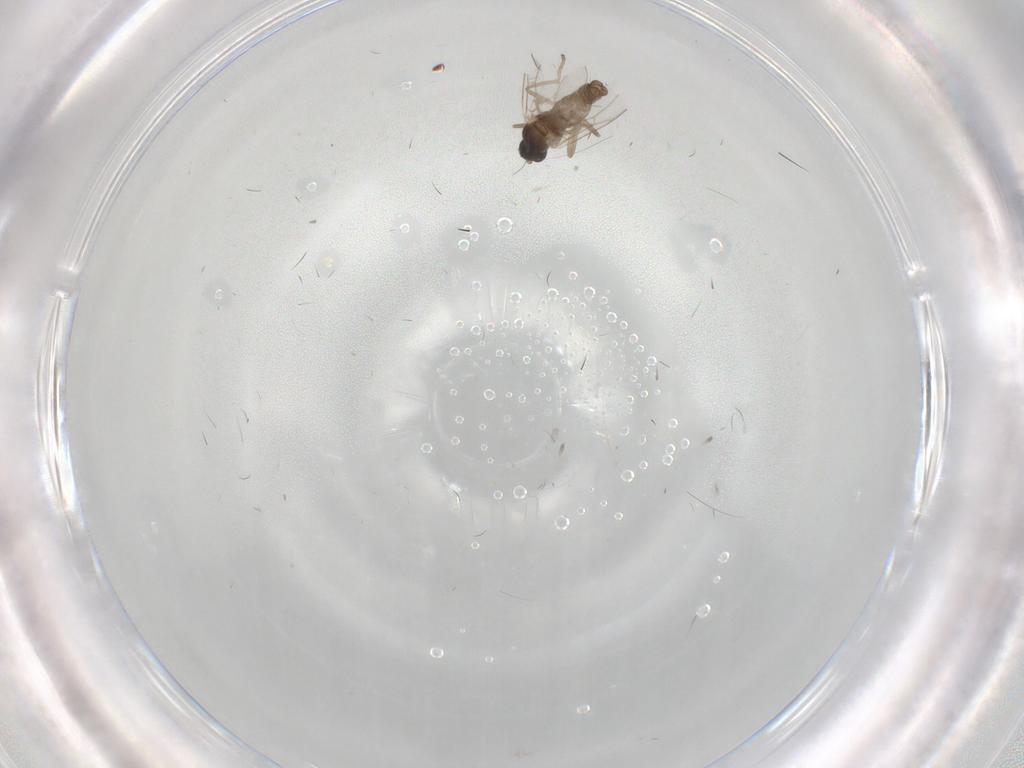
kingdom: Animalia
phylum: Arthropoda
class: Insecta
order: Diptera
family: Cecidomyiidae
